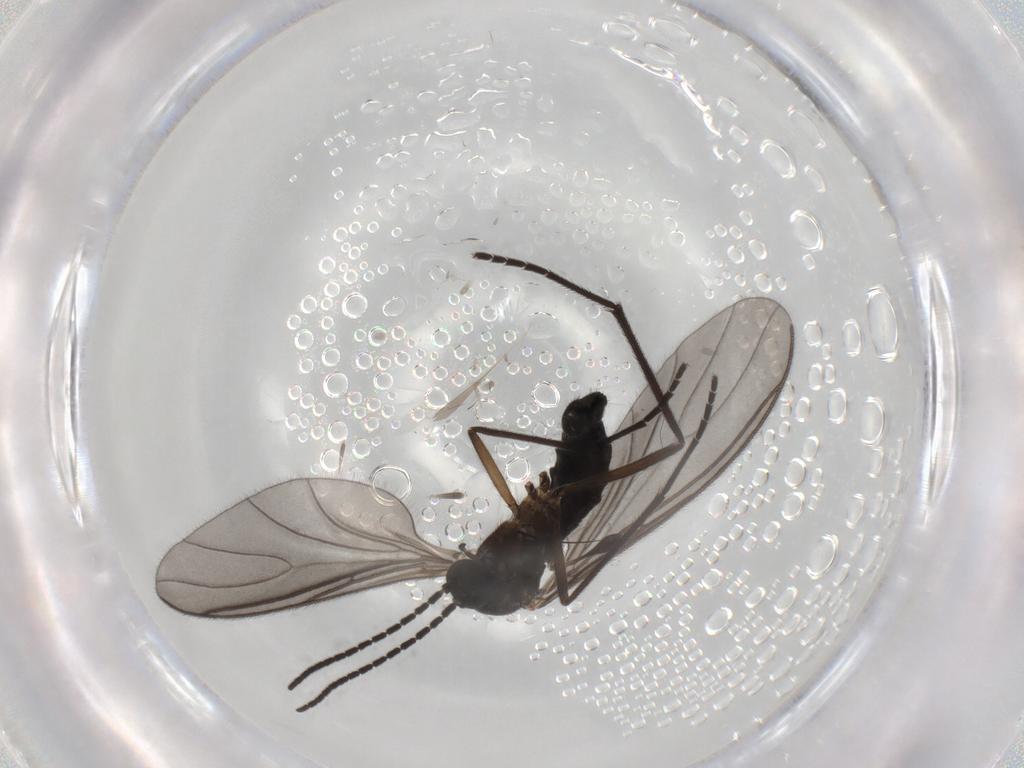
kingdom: Animalia
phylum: Arthropoda
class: Insecta
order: Diptera
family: Sciaridae
